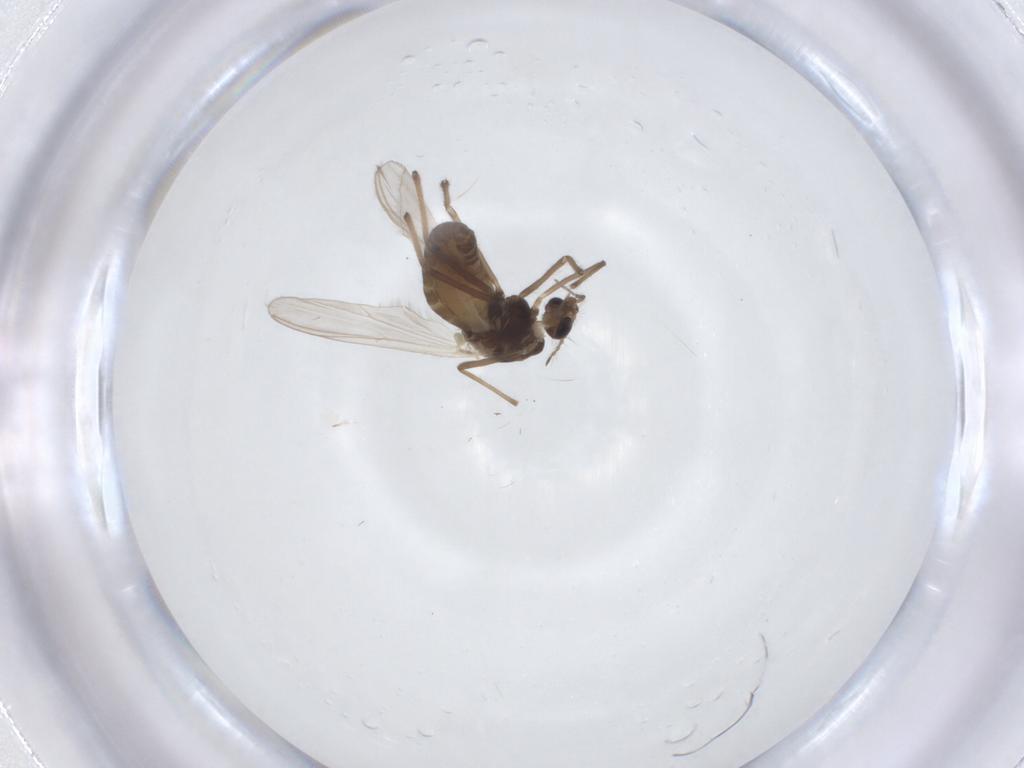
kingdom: Animalia
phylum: Arthropoda
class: Insecta
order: Diptera
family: Chironomidae
